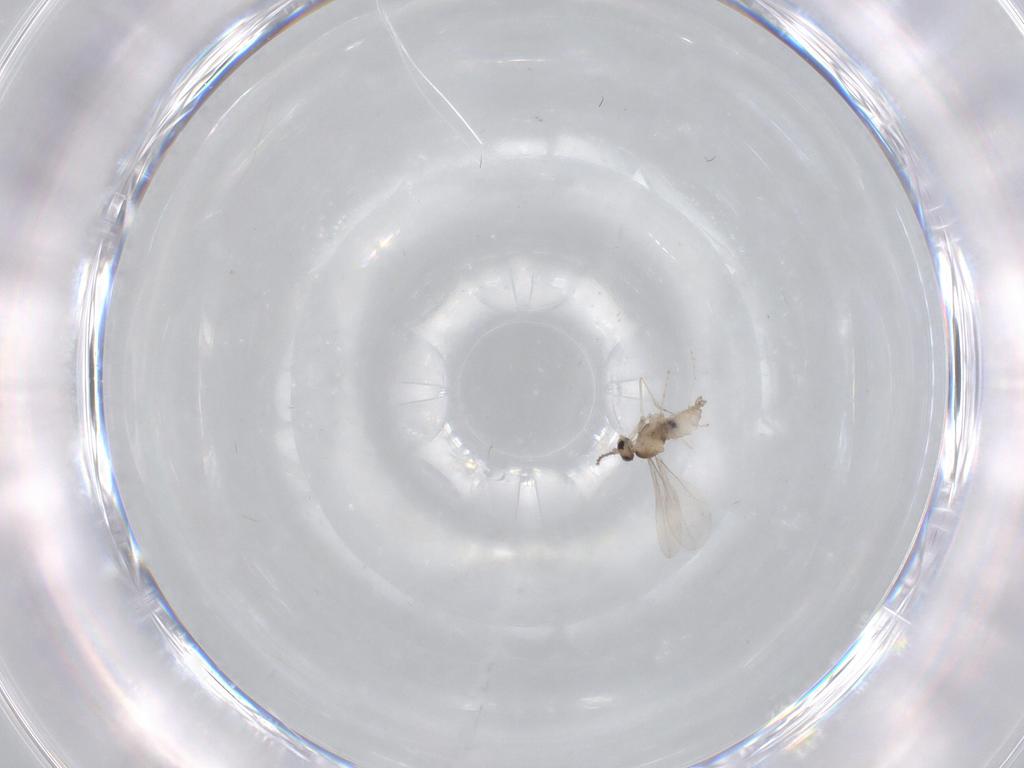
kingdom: Animalia
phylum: Arthropoda
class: Insecta
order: Diptera
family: Cecidomyiidae
